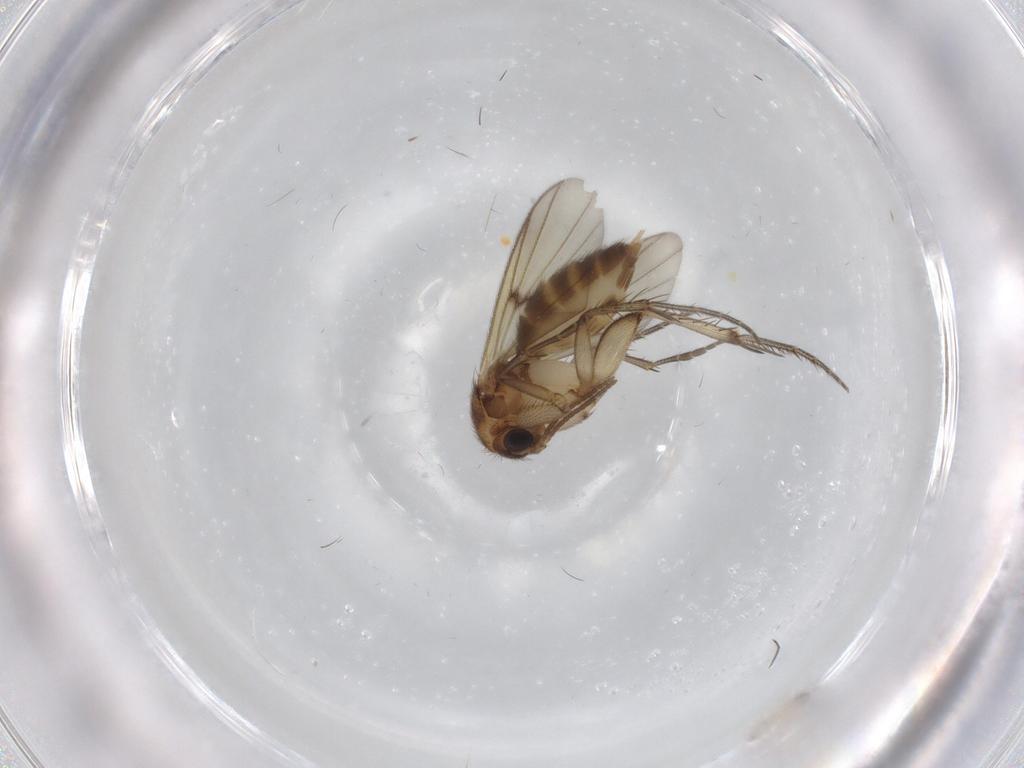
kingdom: Animalia
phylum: Arthropoda
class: Insecta
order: Diptera
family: Mycetophilidae
